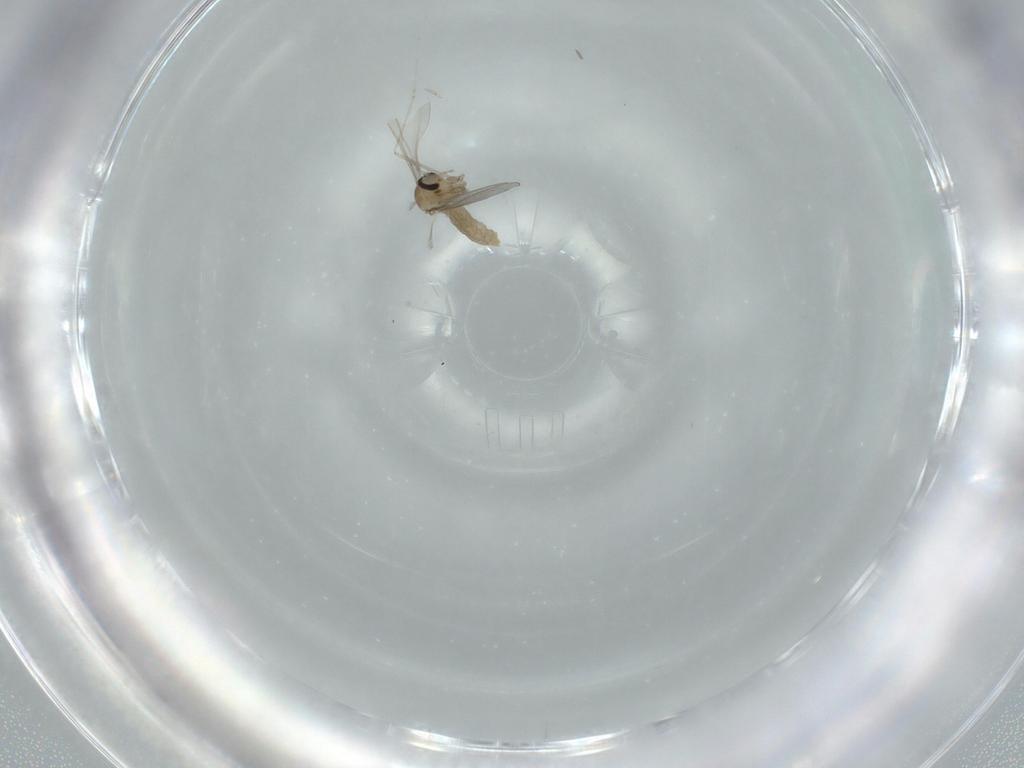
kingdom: Animalia
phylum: Arthropoda
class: Insecta
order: Diptera
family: Cecidomyiidae
